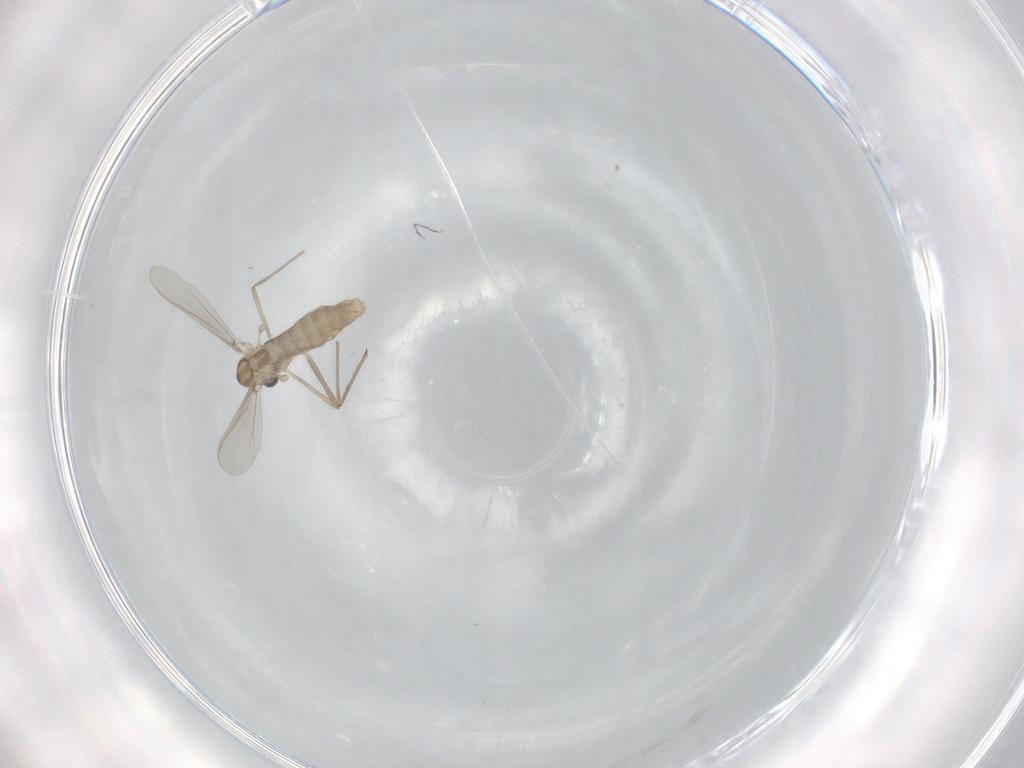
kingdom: Animalia
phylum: Arthropoda
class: Insecta
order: Diptera
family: Chironomidae
